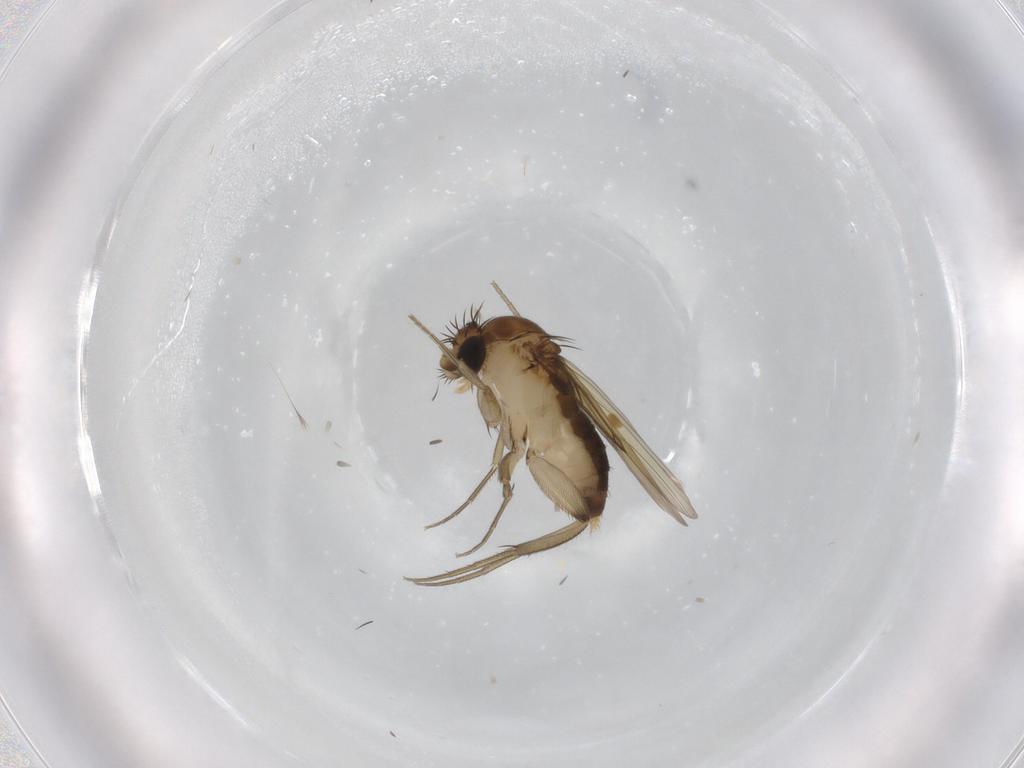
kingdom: Animalia
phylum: Arthropoda
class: Insecta
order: Diptera
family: Phoridae
